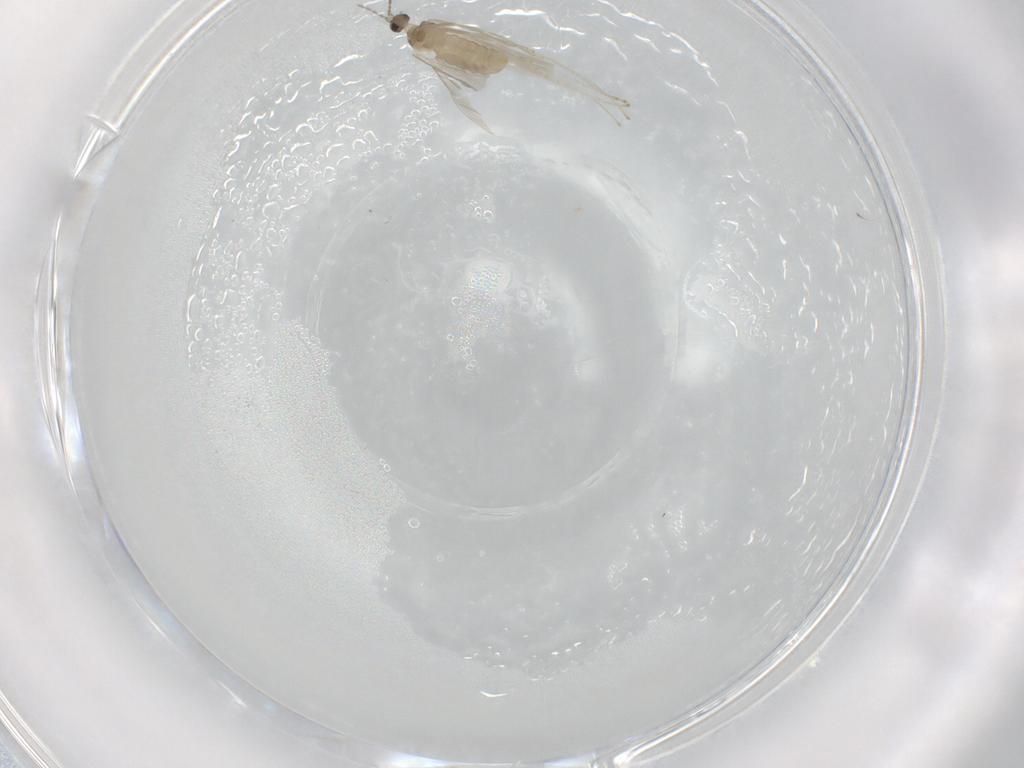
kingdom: Animalia
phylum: Arthropoda
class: Insecta
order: Diptera
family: Phoridae
